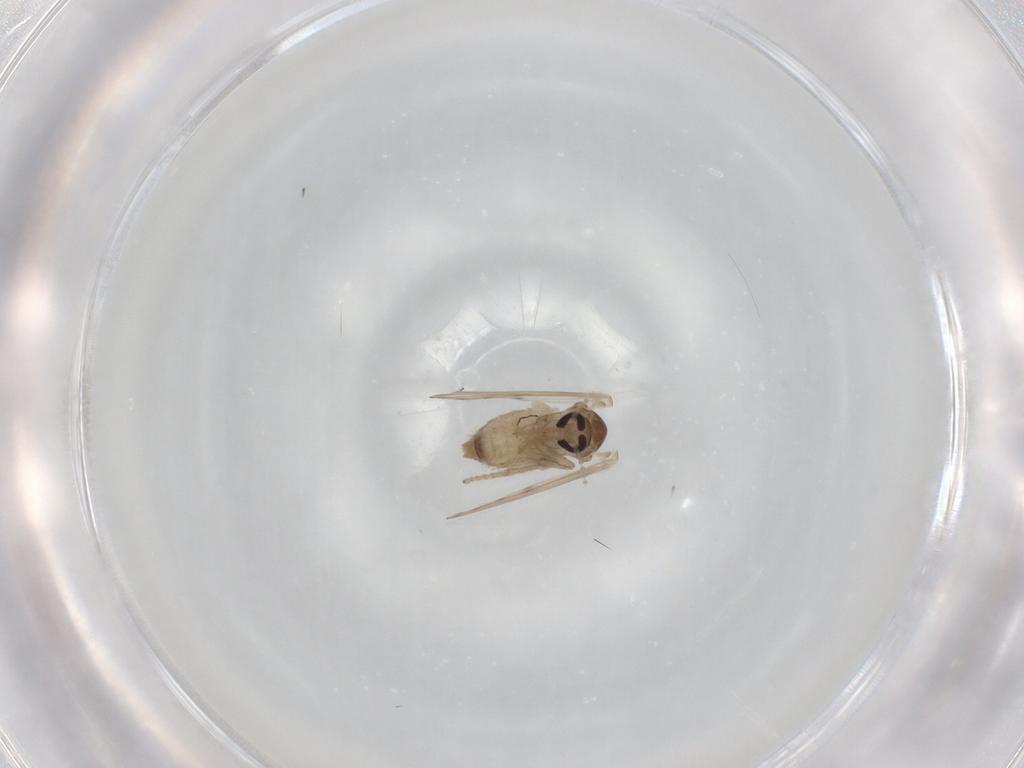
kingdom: Animalia
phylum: Arthropoda
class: Insecta
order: Diptera
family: Psychodidae
